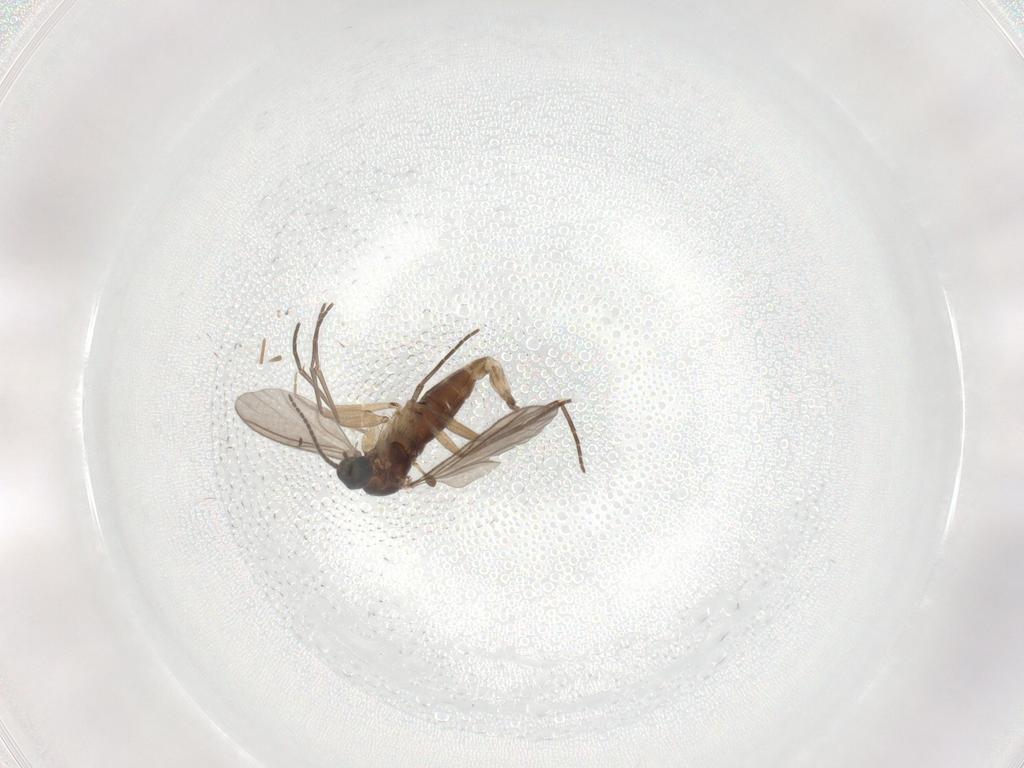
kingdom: Animalia
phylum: Arthropoda
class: Insecta
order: Diptera
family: Sciaridae
